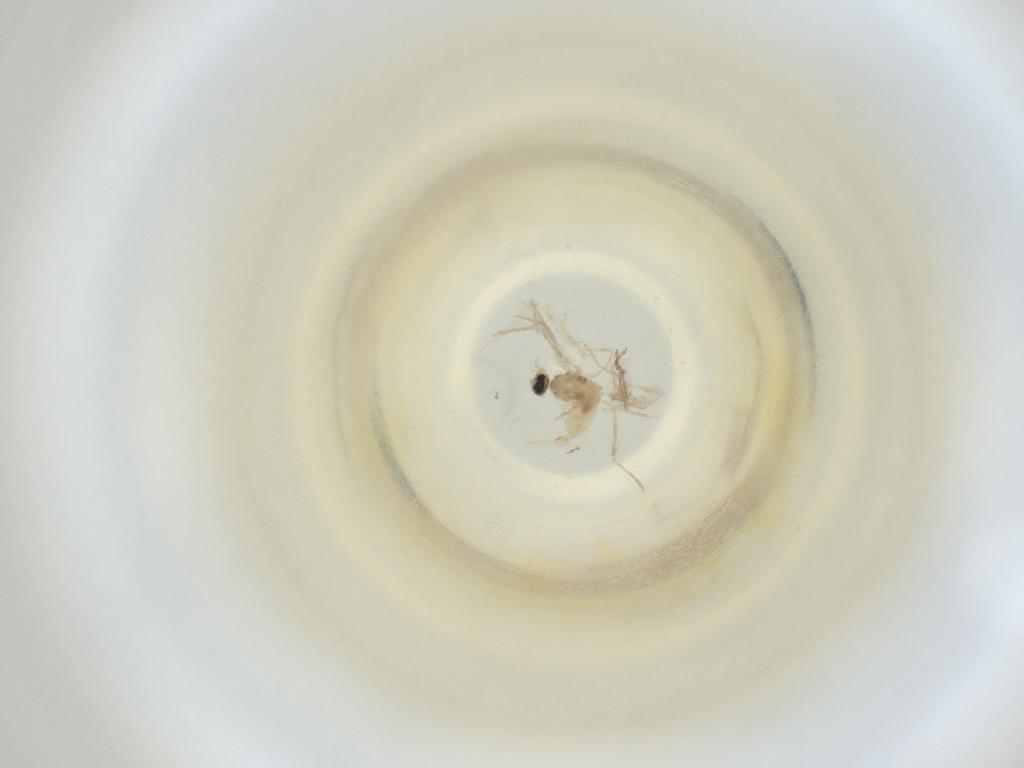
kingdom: Animalia
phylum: Arthropoda
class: Insecta
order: Diptera
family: Cecidomyiidae
